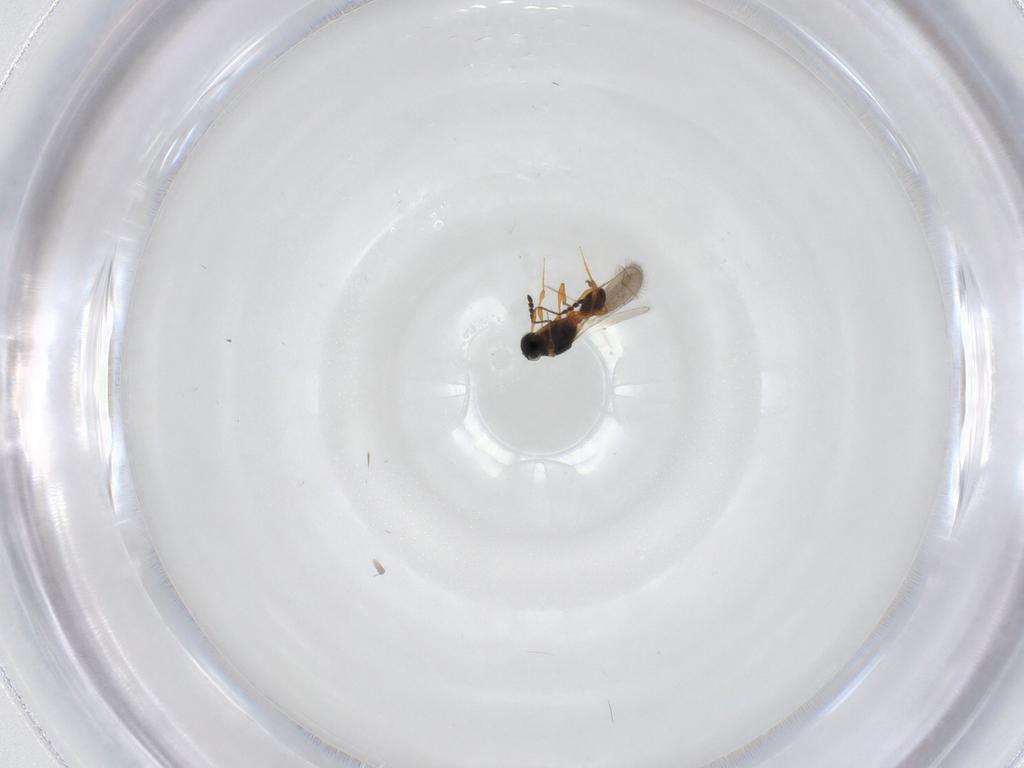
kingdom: Animalia
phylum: Arthropoda
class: Insecta
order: Hymenoptera
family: Platygastridae
